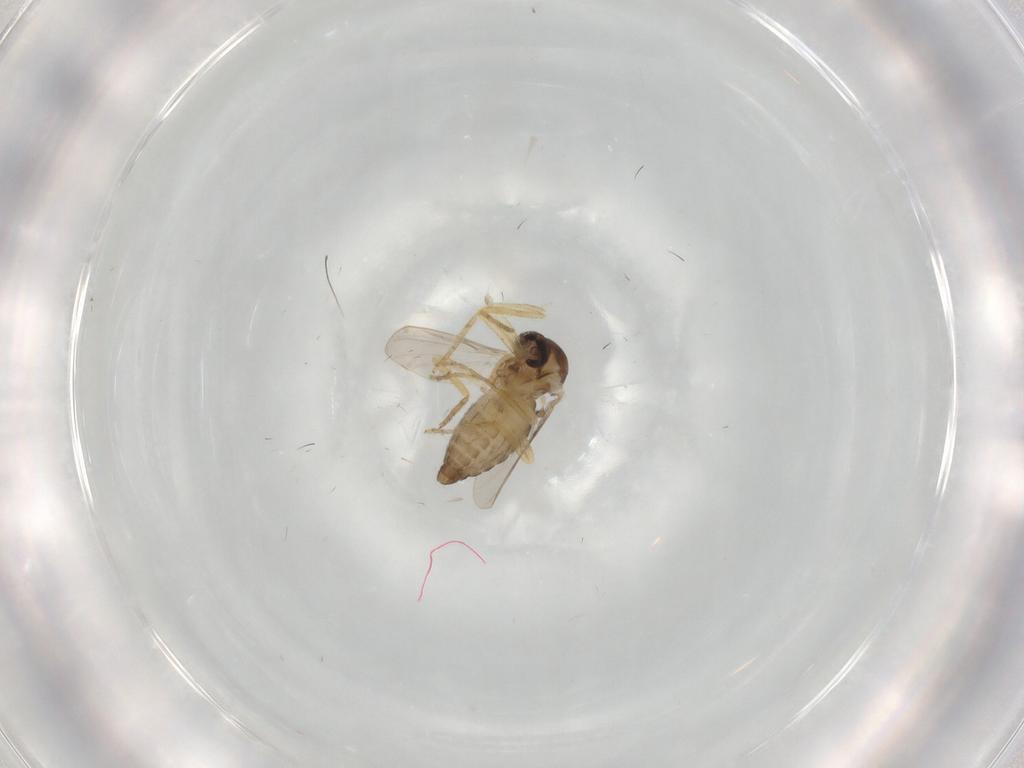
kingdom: Animalia
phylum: Arthropoda
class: Insecta
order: Diptera
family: Ceratopogonidae
